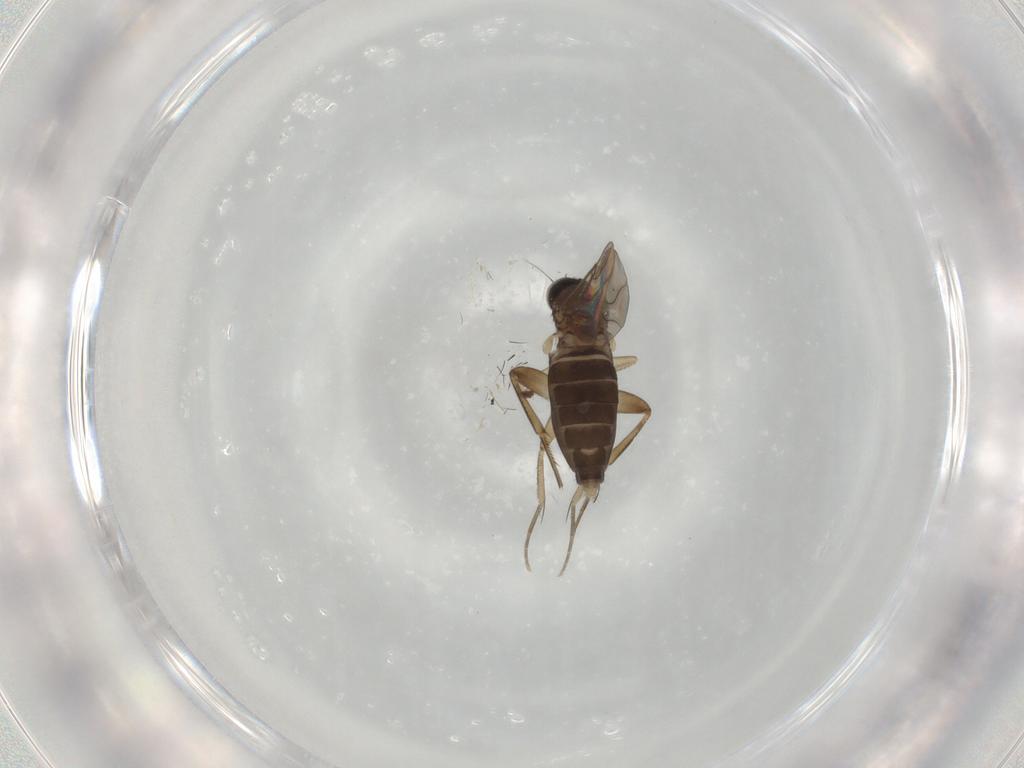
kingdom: Animalia
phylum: Arthropoda
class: Insecta
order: Diptera
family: Phoridae
